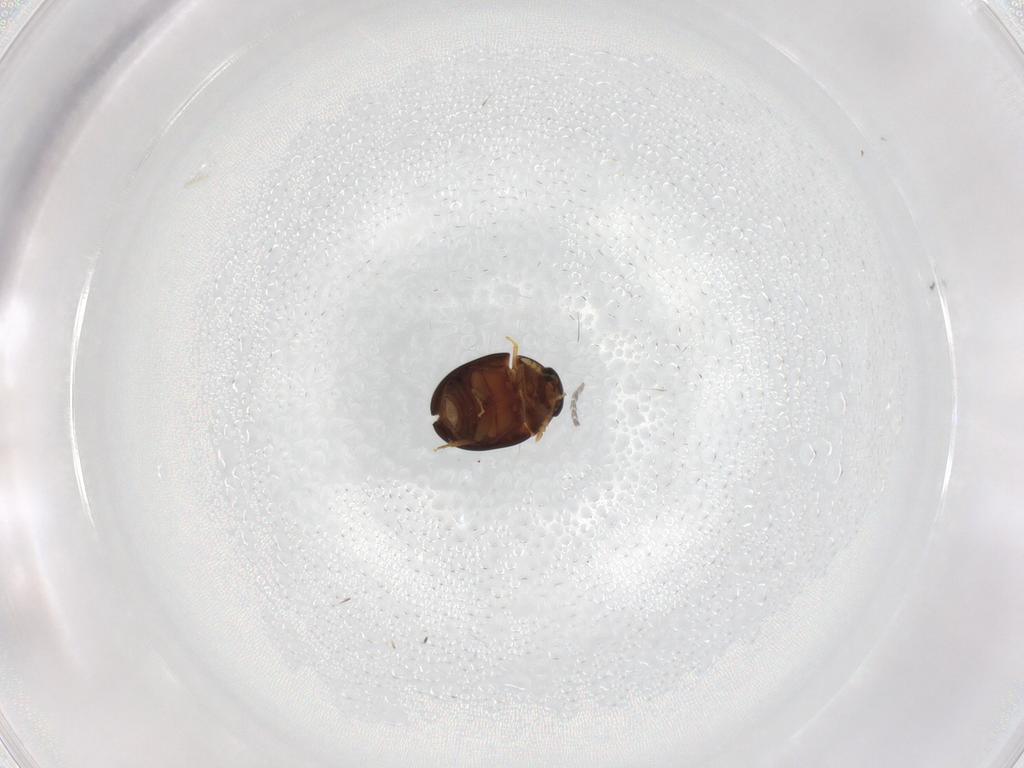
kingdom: Animalia
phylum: Arthropoda
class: Insecta
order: Coleoptera
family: Phalacridae
